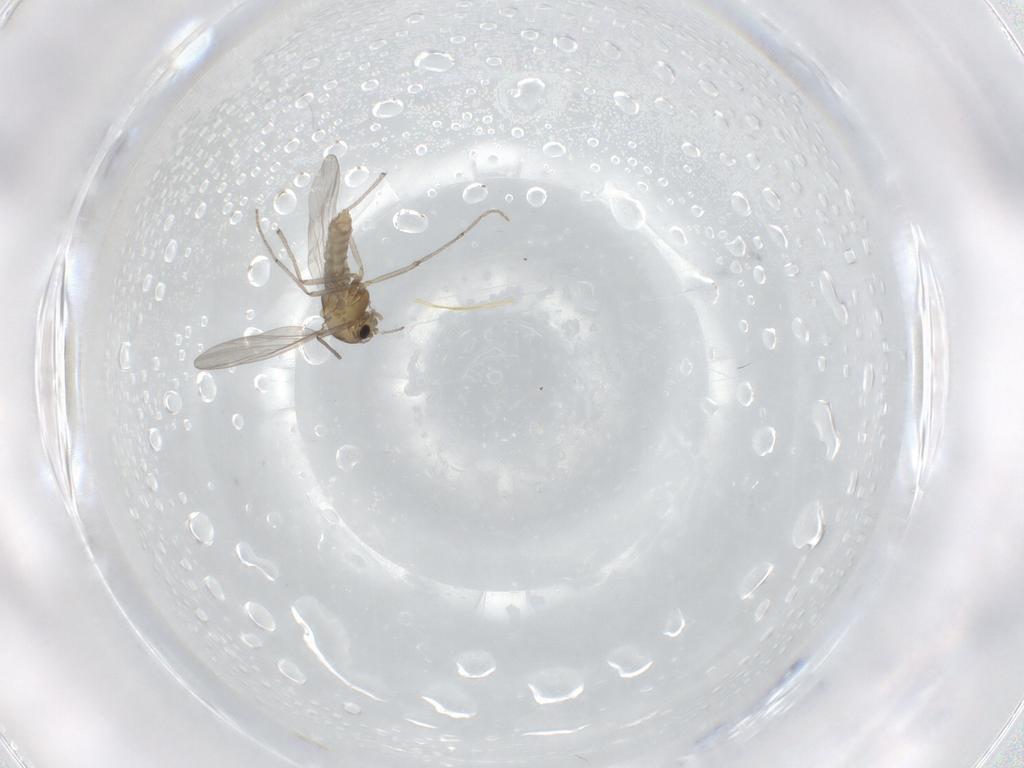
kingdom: Animalia
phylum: Arthropoda
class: Insecta
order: Diptera
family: Chironomidae
